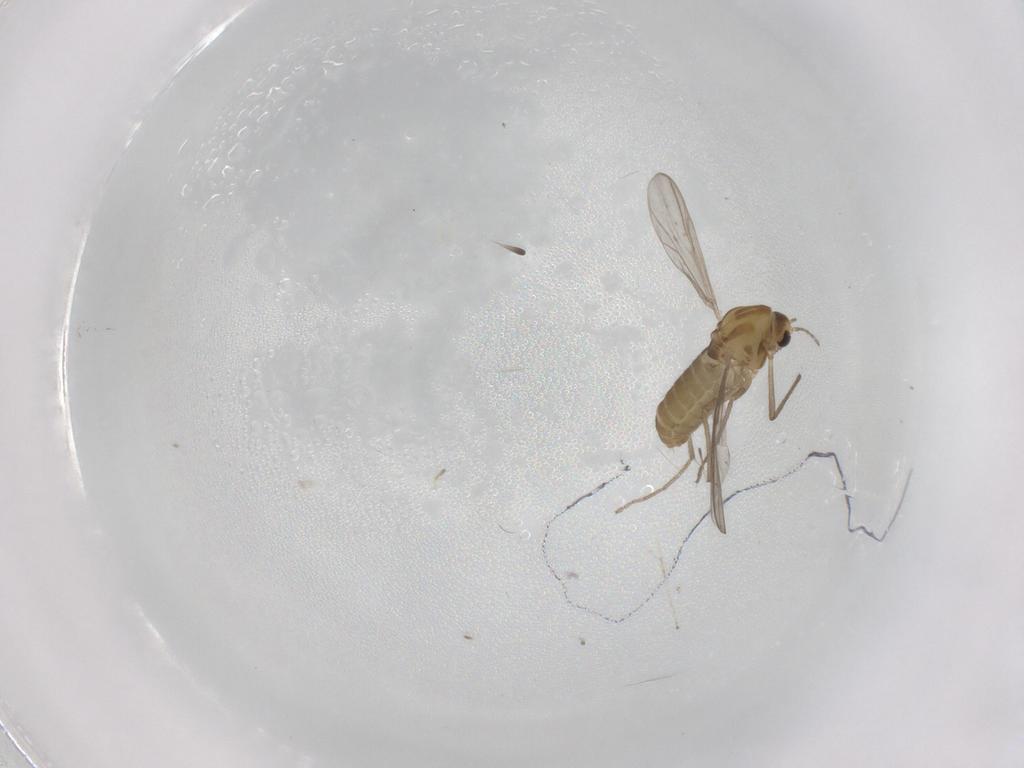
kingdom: Animalia
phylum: Arthropoda
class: Insecta
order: Diptera
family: Chironomidae
